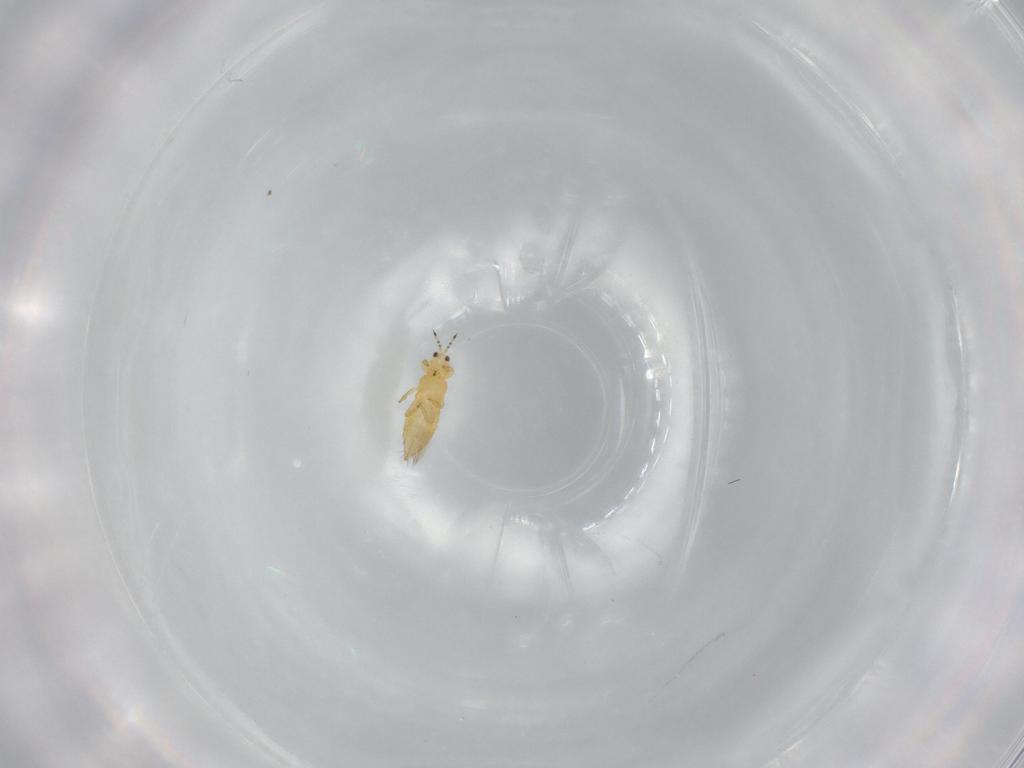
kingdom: Animalia
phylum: Arthropoda
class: Insecta
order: Thysanoptera
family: Thripidae
